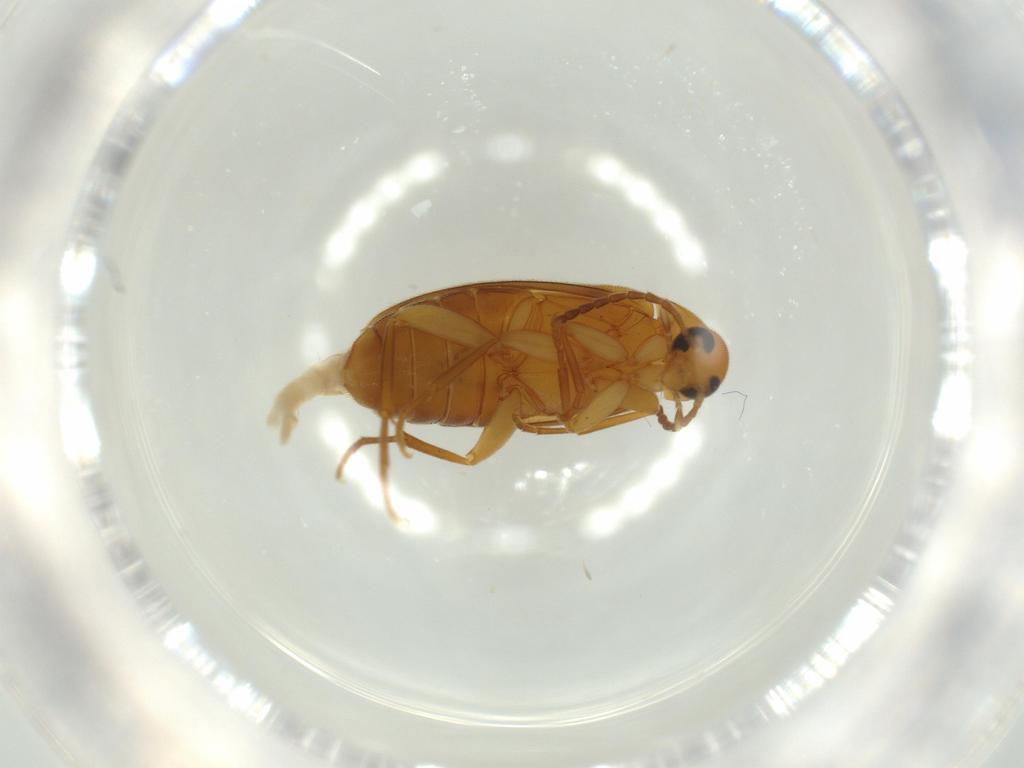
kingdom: Animalia
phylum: Arthropoda
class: Insecta
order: Coleoptera
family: Scraptiidae
